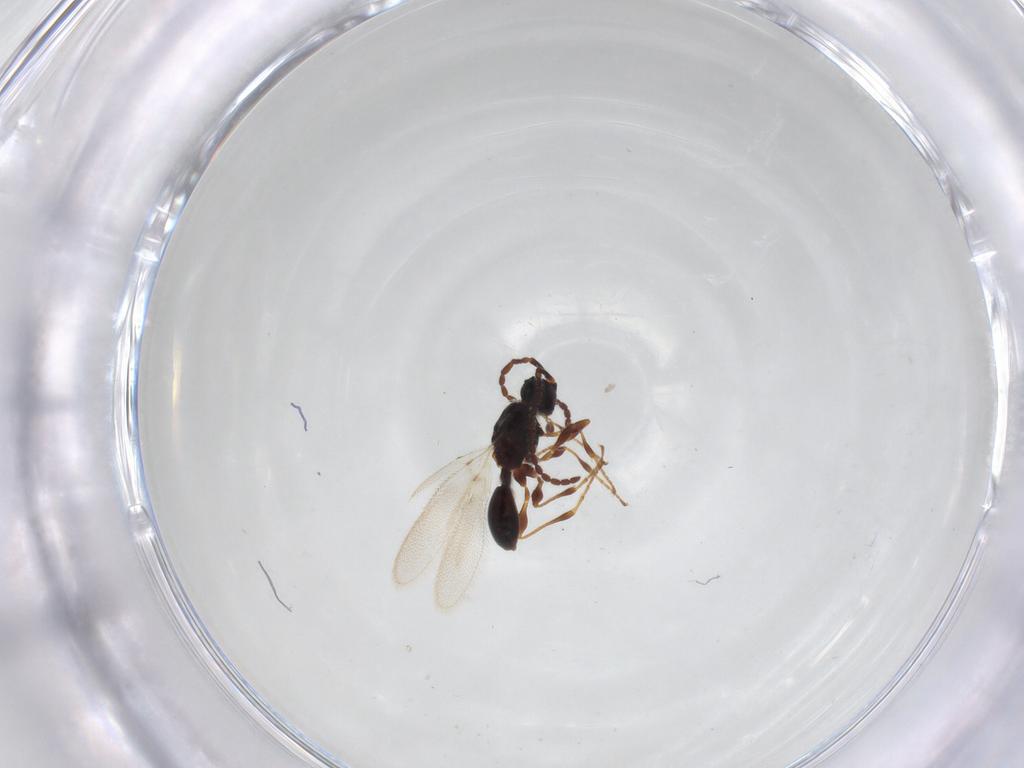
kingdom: Animalia
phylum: Arthropoda
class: Insecta
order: Hymenoptera
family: Diapriidae
